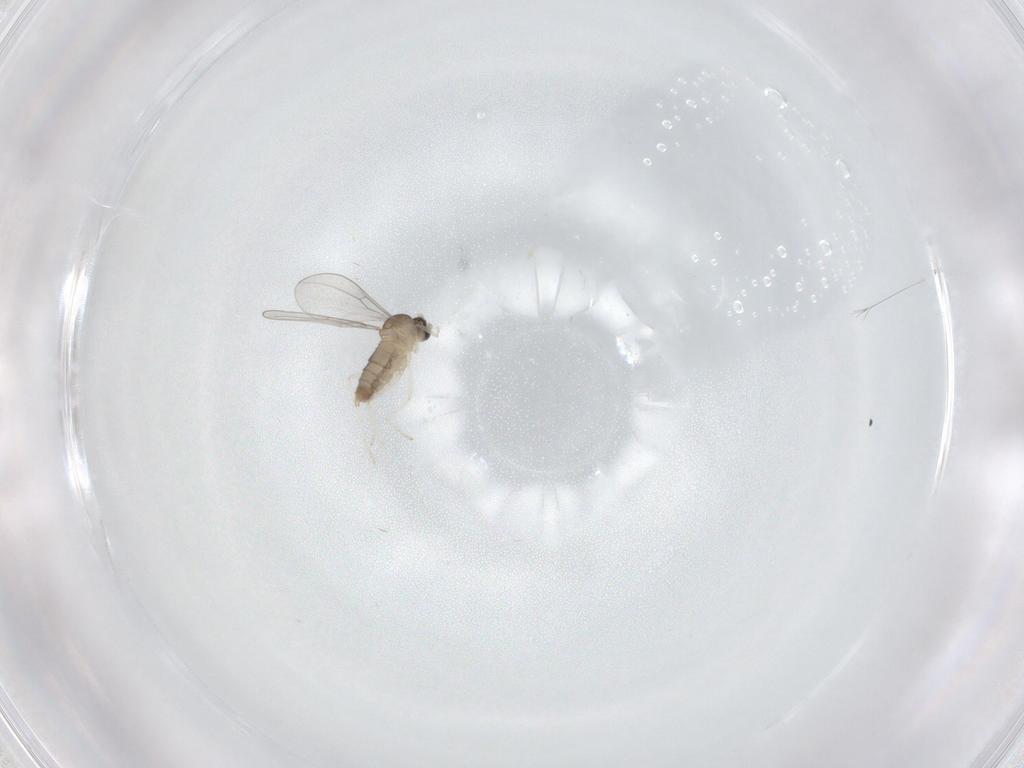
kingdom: Animalia
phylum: Arthropoda
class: Insecta
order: Diptera
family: Cecidomyiidae
